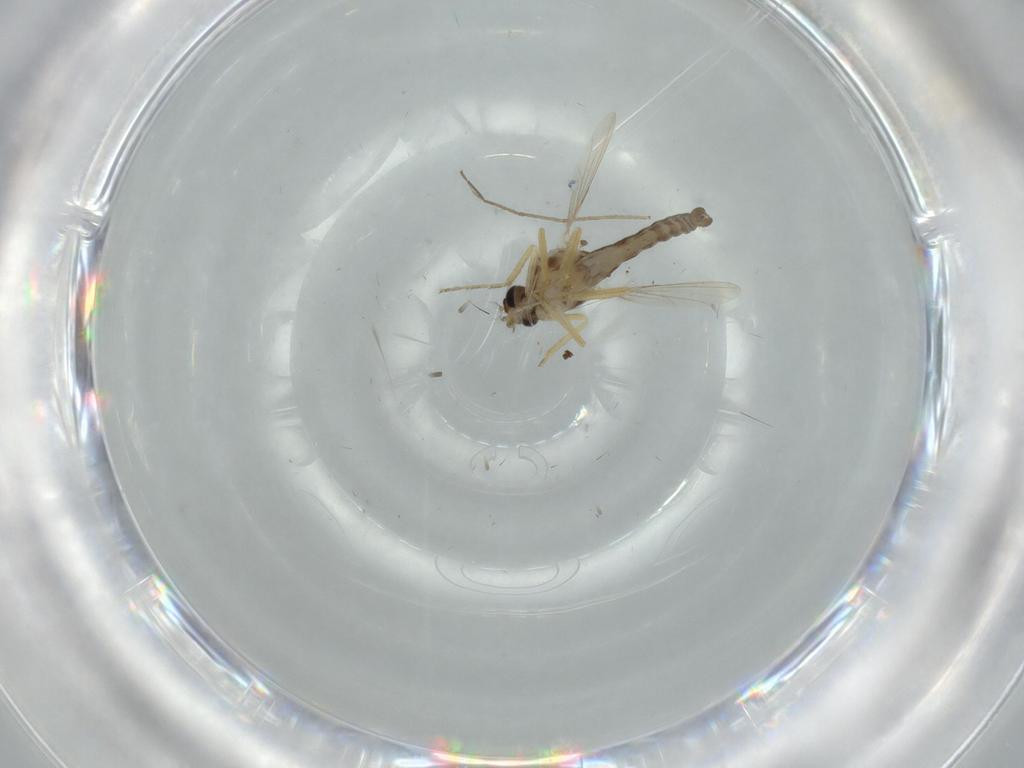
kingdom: Animalia
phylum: Arthropoda
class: Insecta
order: Diptera
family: Ceratopogonidae
